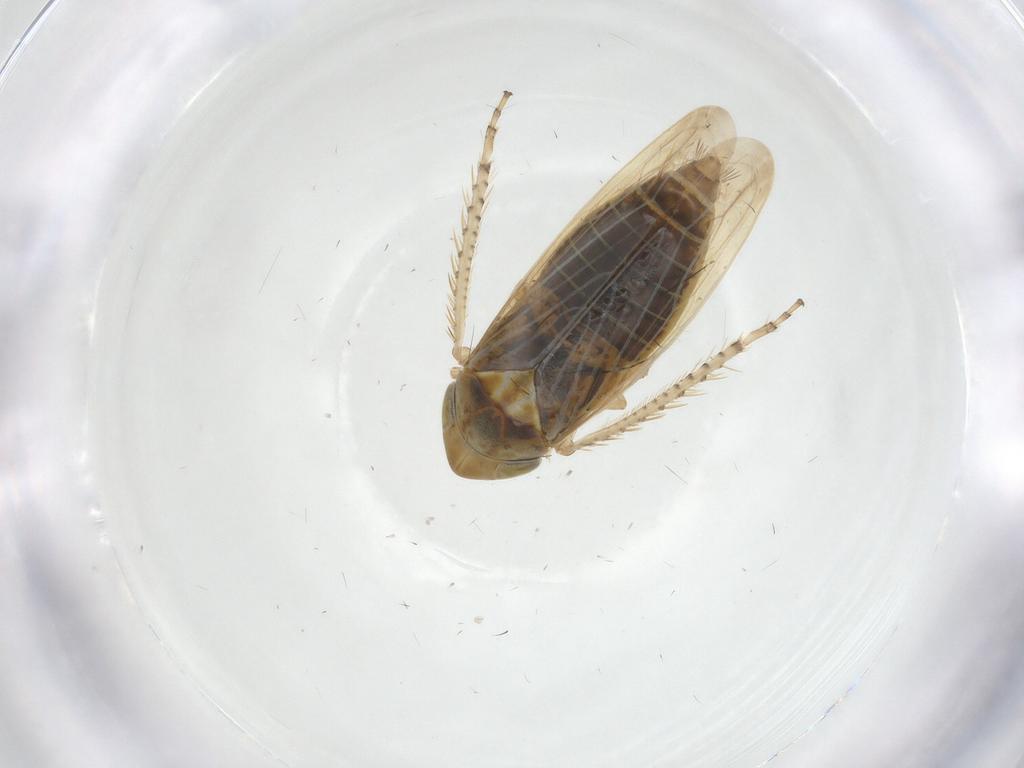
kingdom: Animalia
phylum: Arthropoda
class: Insecta
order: Hemiptera
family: Cicadellidae
